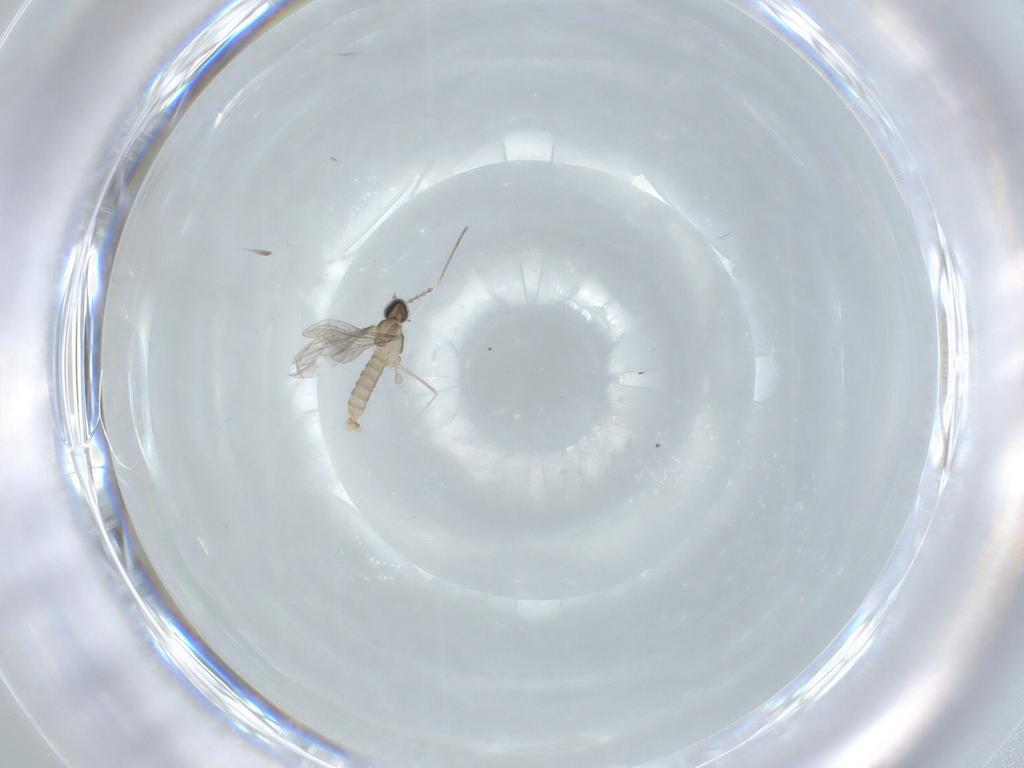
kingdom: Animalia
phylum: Arthropoda
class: Insecta
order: Diptera
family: Cecidomyiidae
